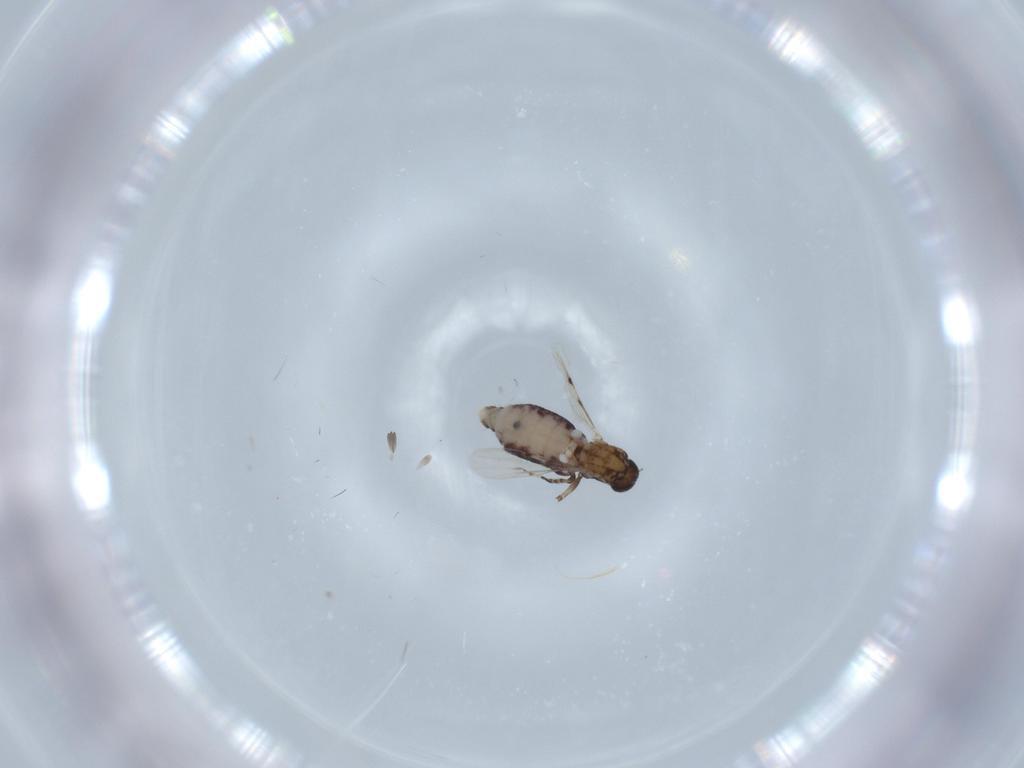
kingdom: Animalia
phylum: Arthropoda
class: Insecta
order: Diptera
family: Ceratopogonidae
